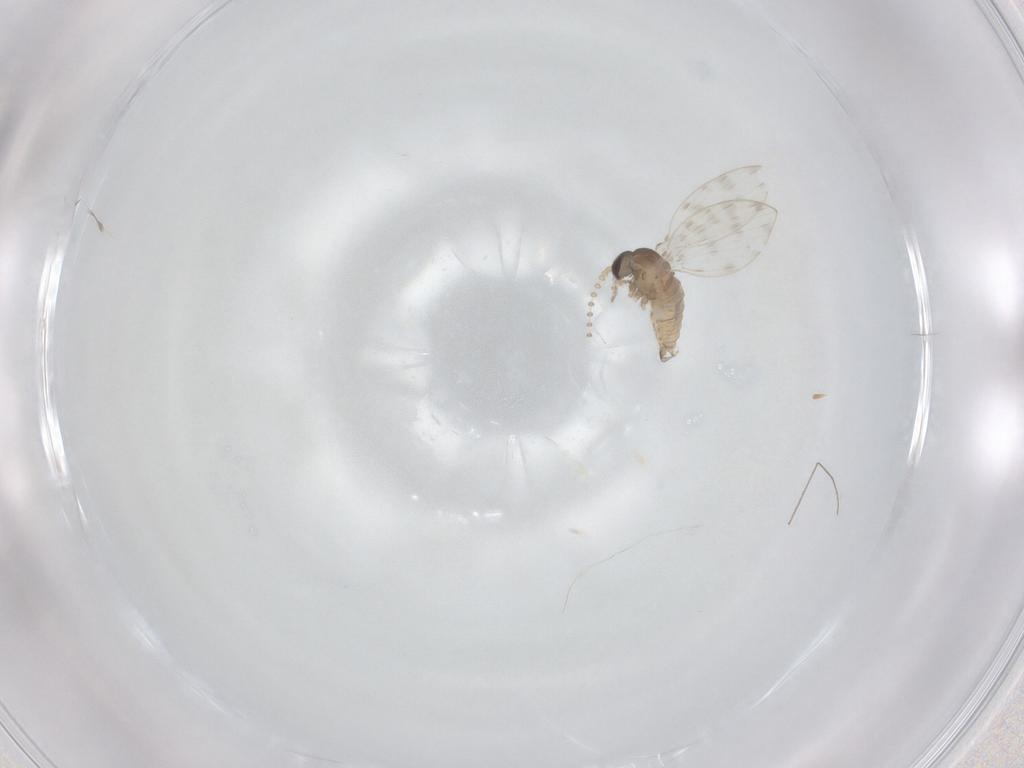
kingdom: Animalia
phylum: Arthropoda
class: Insecta
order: Diptera
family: Psychodidae
